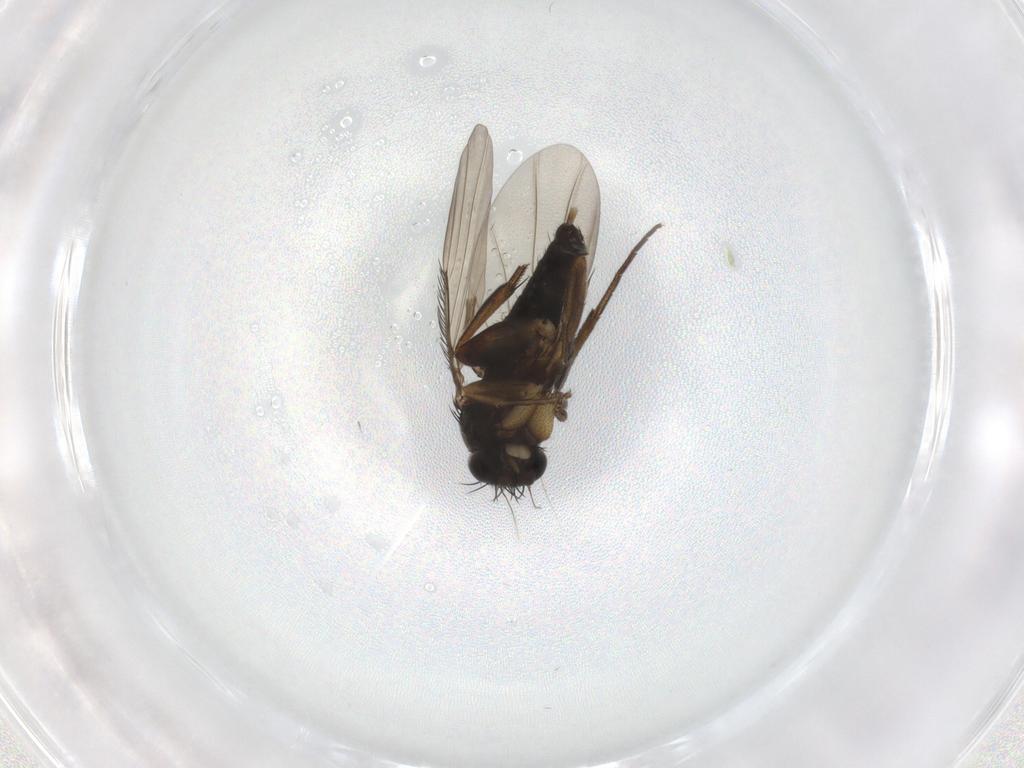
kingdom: Animalia
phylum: Arthropoda
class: Insecta
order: Diptera
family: Phoridae
